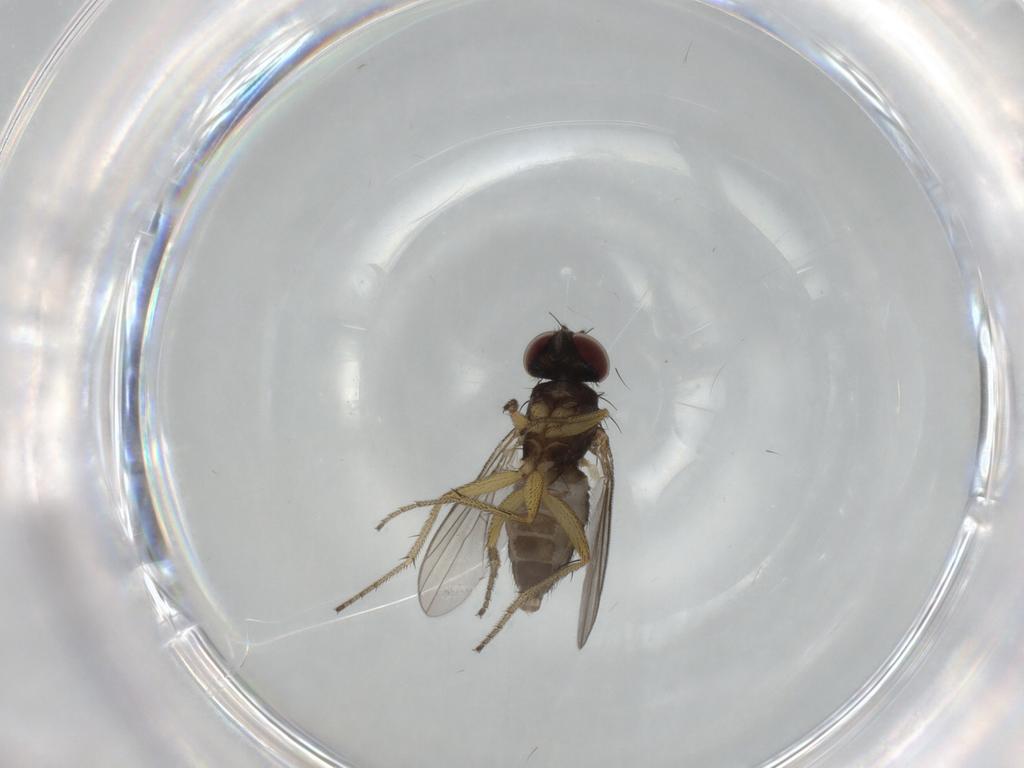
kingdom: Animalia
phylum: Arthropoda
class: Insecta
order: Diptera
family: Micropezidae
